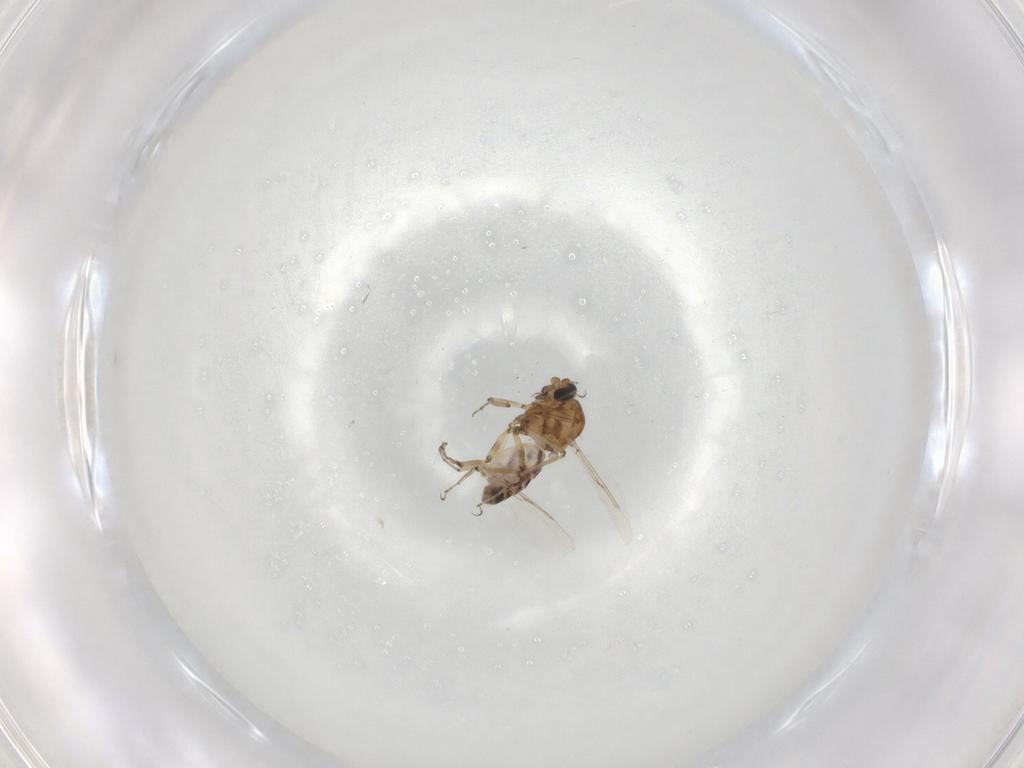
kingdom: Animalia
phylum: Arthropoda
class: Insecta
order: Diptera
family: Ceratopogonidae
